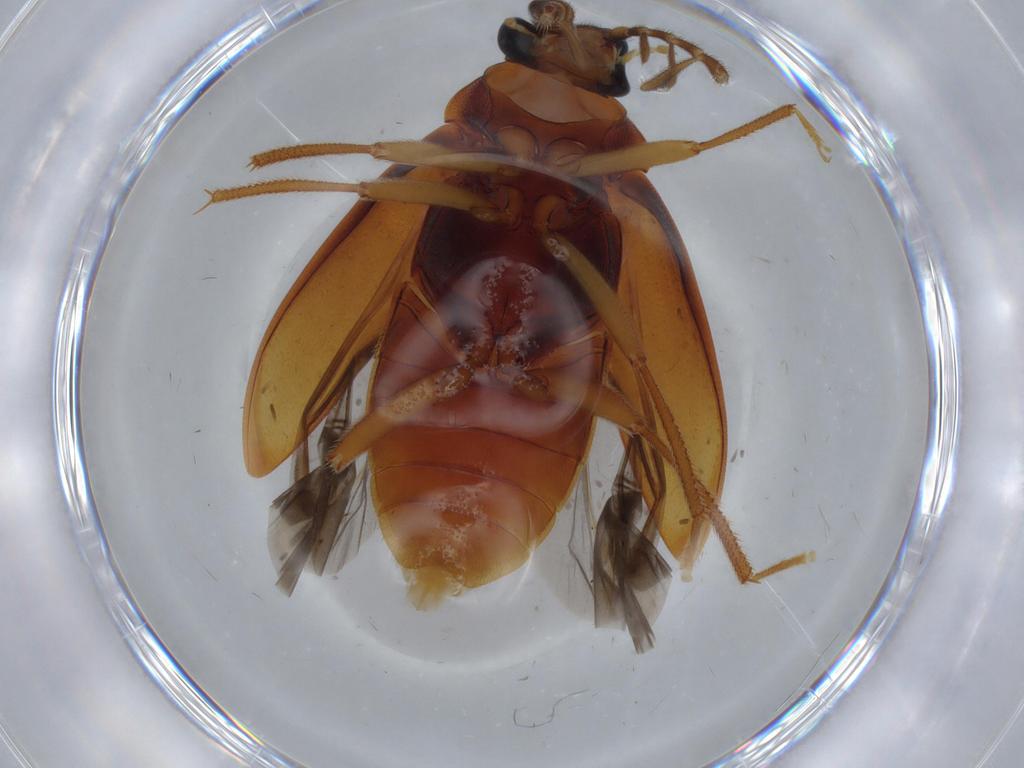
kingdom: Animalia
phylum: Arthropoda
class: Insecta
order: Coleoptera
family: Ptilodactylidae
